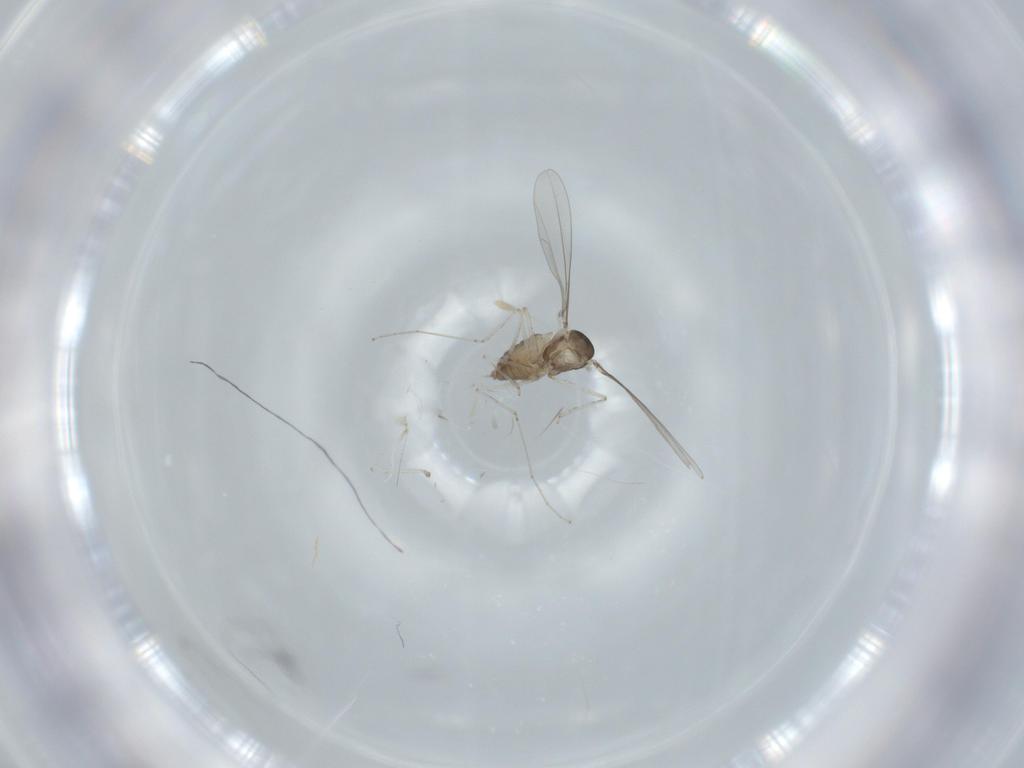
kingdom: Animalia
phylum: Arthropoda
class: Insecta
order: Diptera
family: Cecidomyiidae
